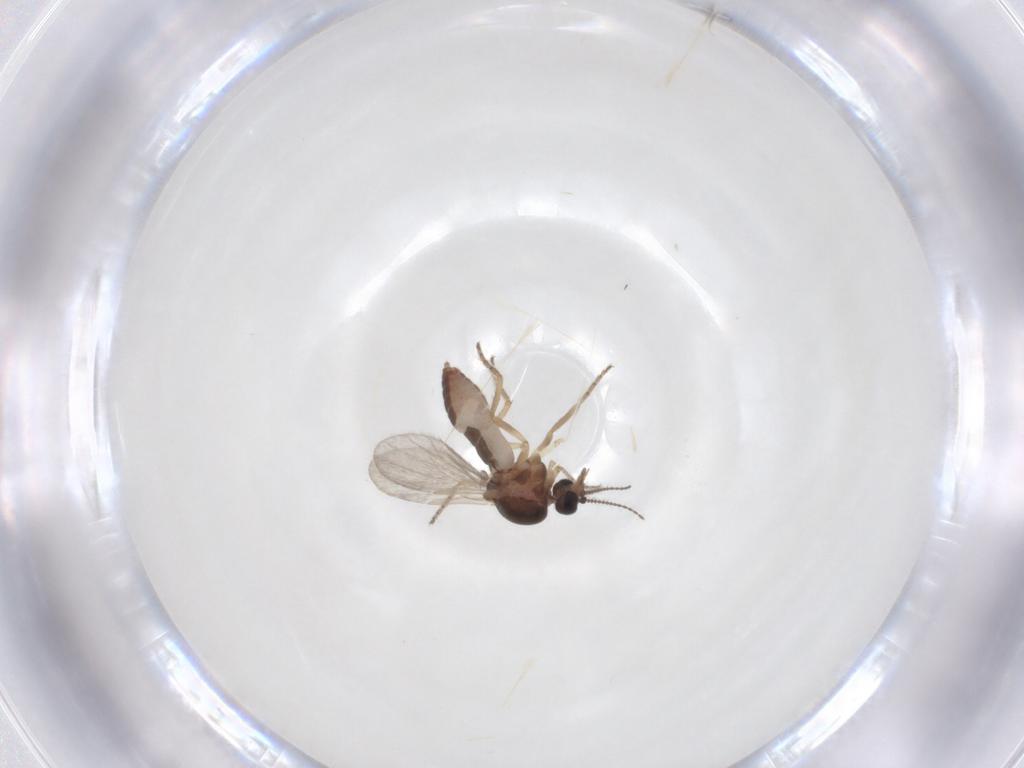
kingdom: Animalia
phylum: Arthropoda
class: Insecta
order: Diptera
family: Ceratopogonidae
